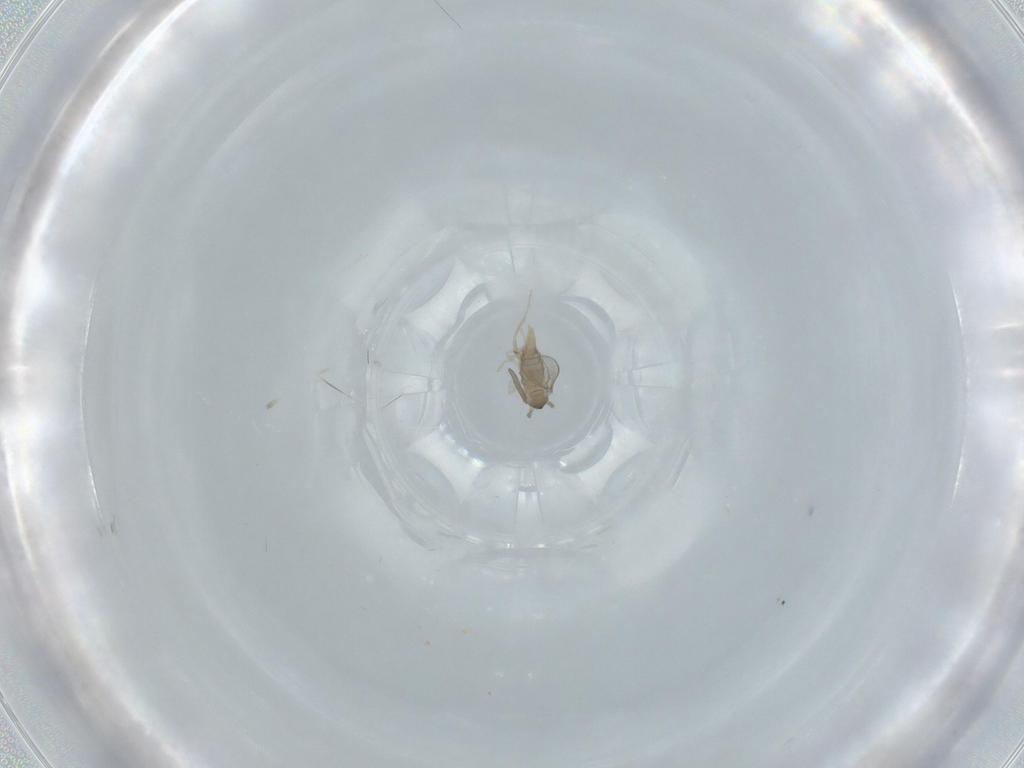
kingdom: Animalia
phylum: Arthropoda
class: Insecta
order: Diptera
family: Cecidomyiidae
